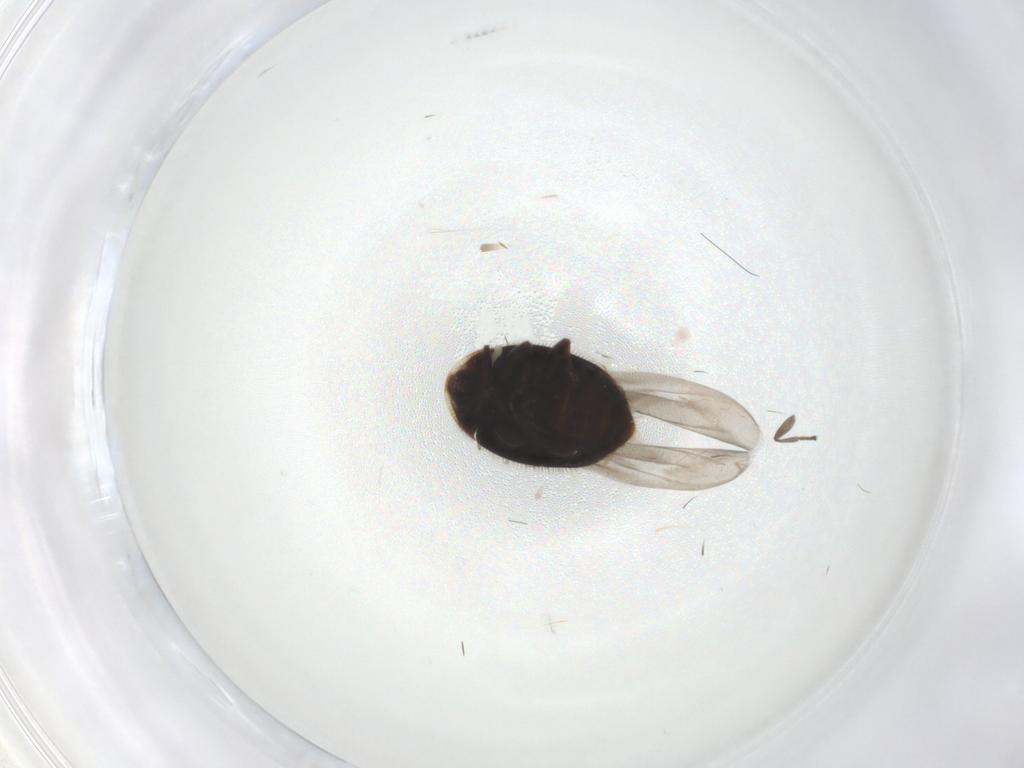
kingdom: Animalia
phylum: Arthropoda
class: Insecta
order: Coleoptera
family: Corylophidae
